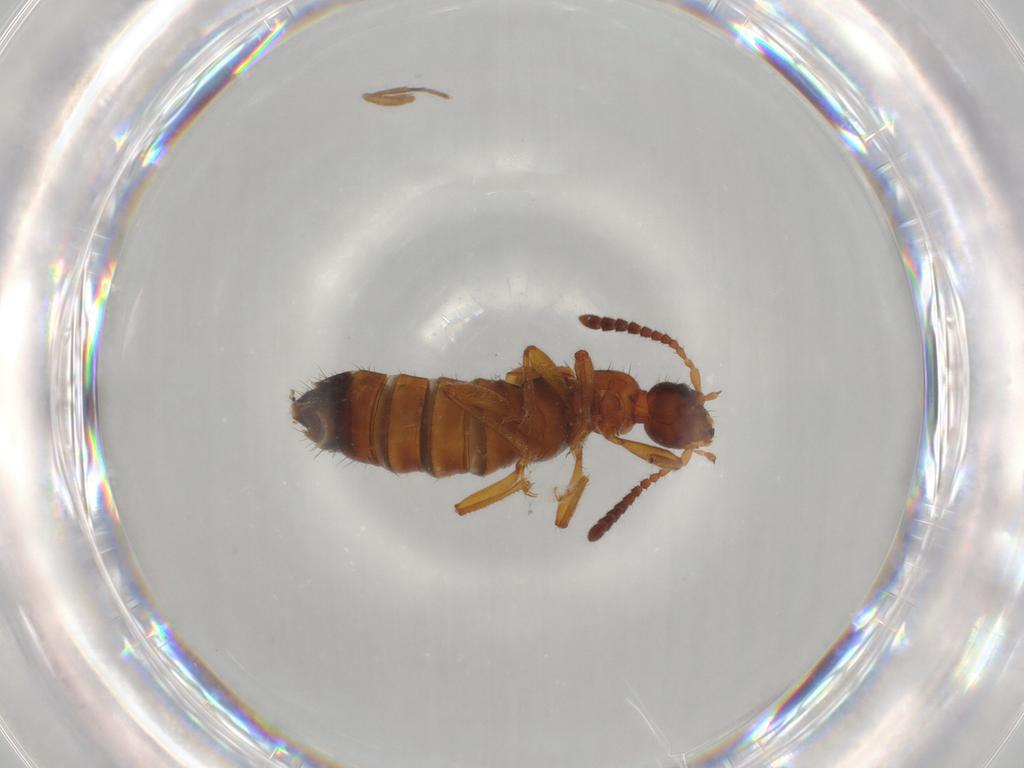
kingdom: Animalia
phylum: Arthropoda
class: Insecta
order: Coleoptera
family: Staphylinidae
